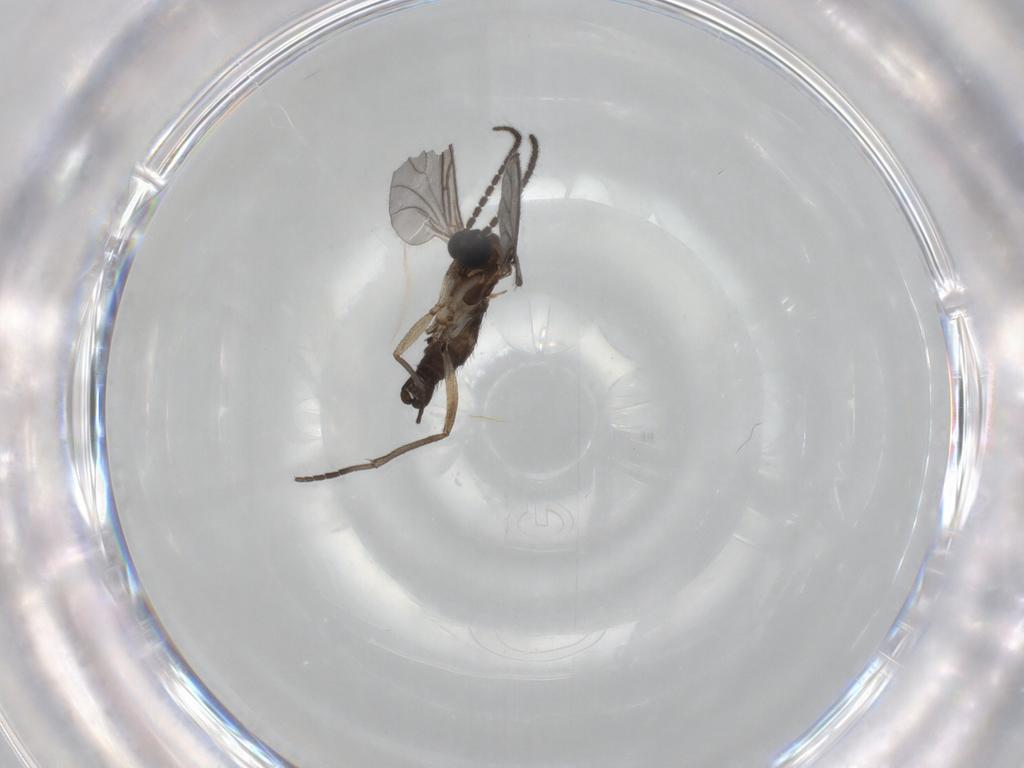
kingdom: Animalia
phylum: Arthropoda
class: Insecta
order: Diptera
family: Sciaridae
